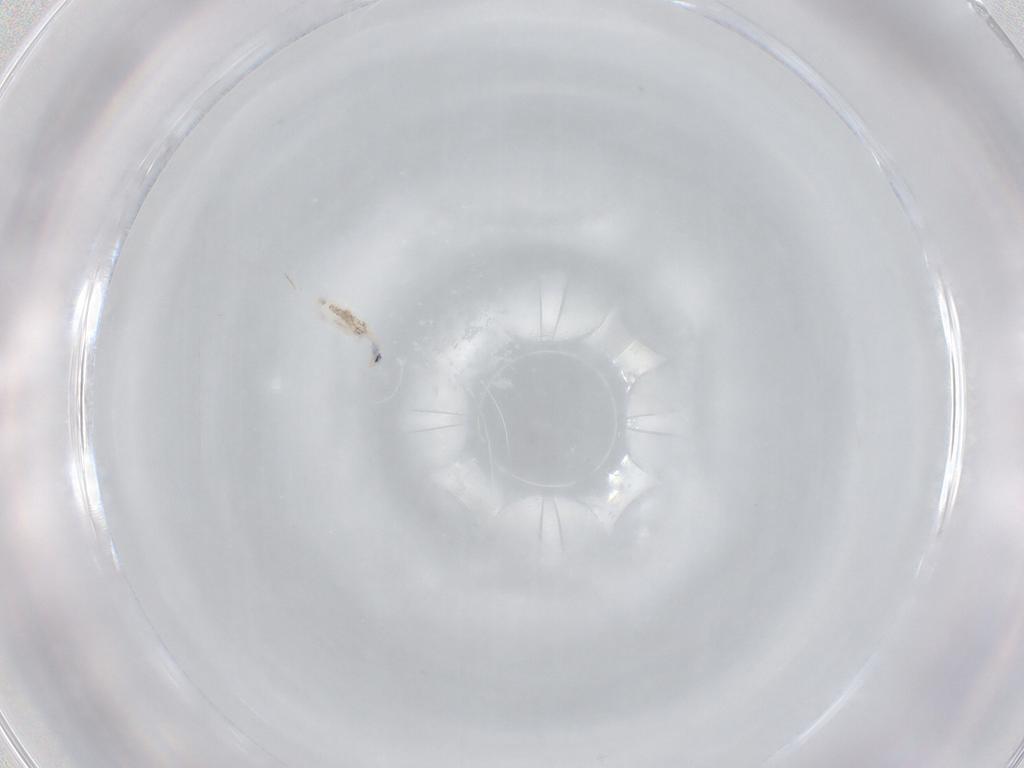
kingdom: Animalia
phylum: Arthropoda
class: Collembola
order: Entomobryomorpha
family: Entomobryidae
